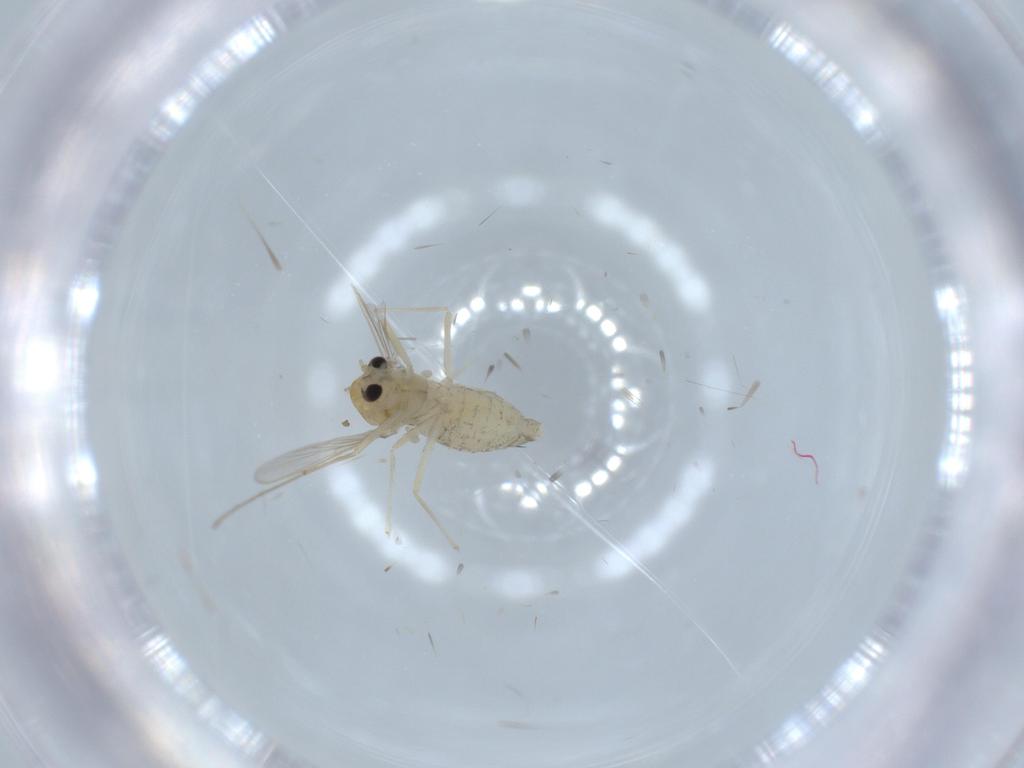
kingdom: Animalia
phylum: Arthropoda
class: Insecta
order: Diptera
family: Chironomidae
